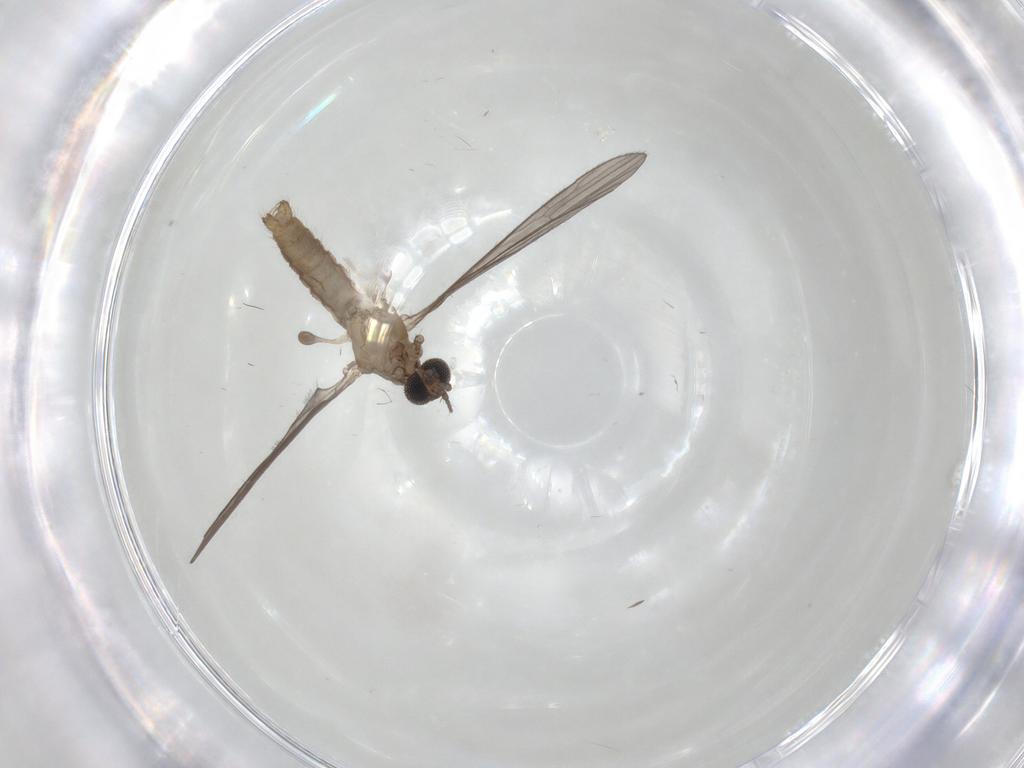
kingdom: Animalia
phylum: Arthropoda
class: Insecta
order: Diptera
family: Limoniidae
